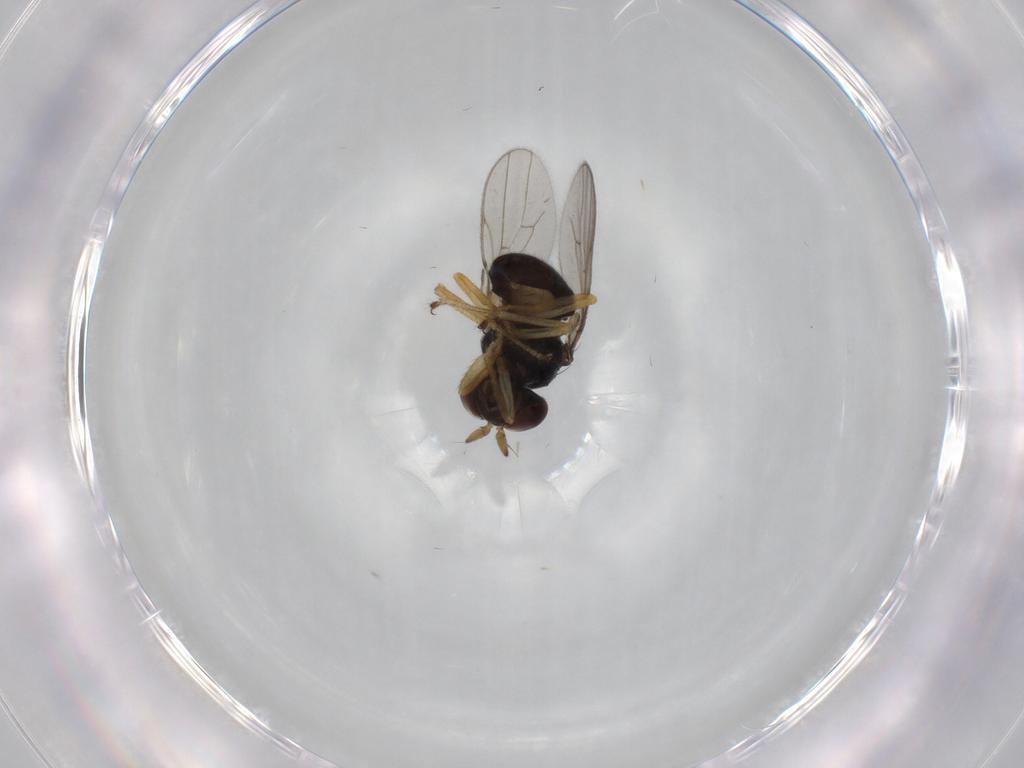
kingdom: Animalia
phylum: Arthropoda
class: Insecta
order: Diptera
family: Ephydridae
